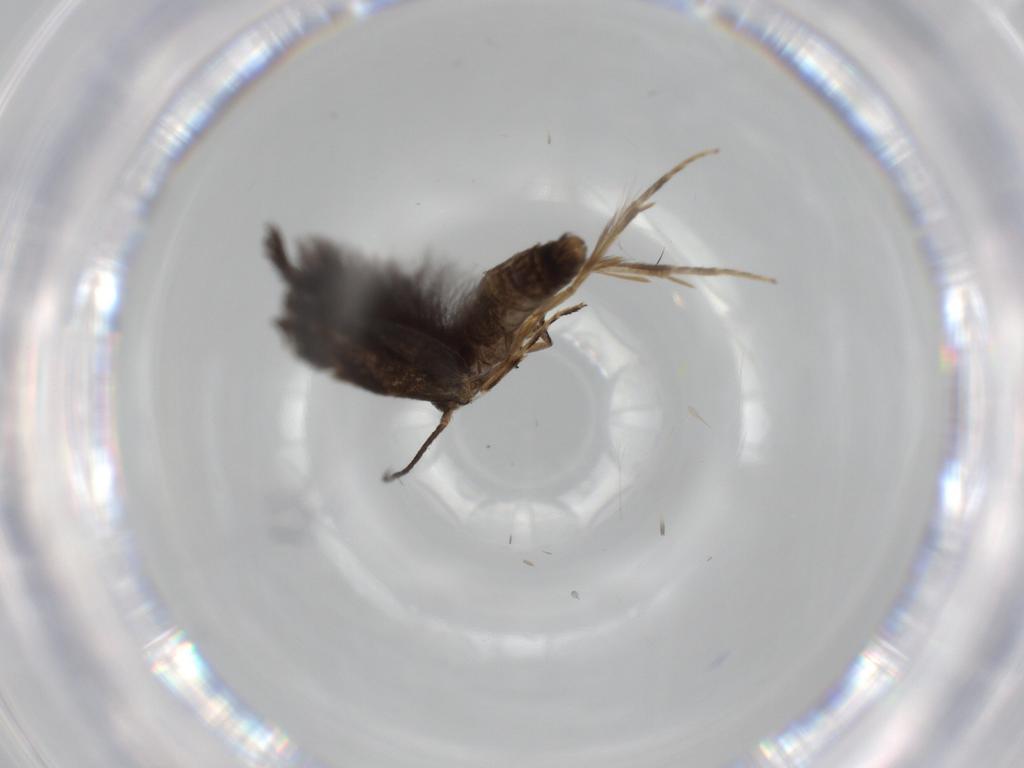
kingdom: Animalia
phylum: Arthropoda
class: Insecta
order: Lepidoptera
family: Gelechiidae
